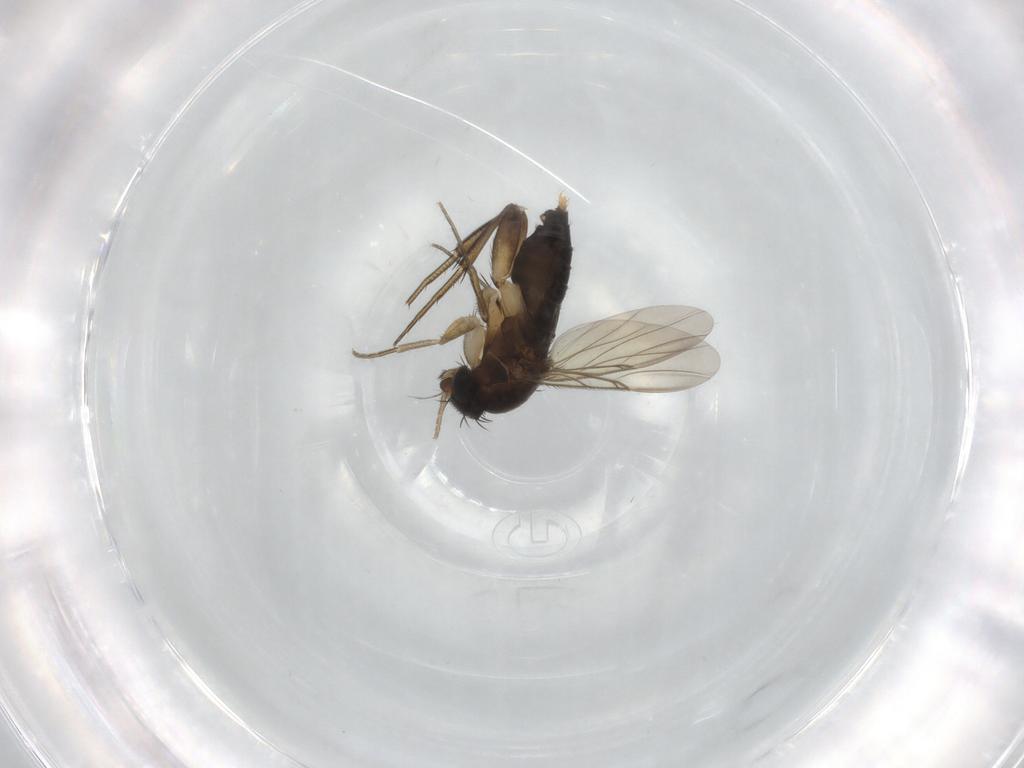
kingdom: Animalia
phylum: Arthropoda
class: Insecta
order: Diptera
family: Phoridae
